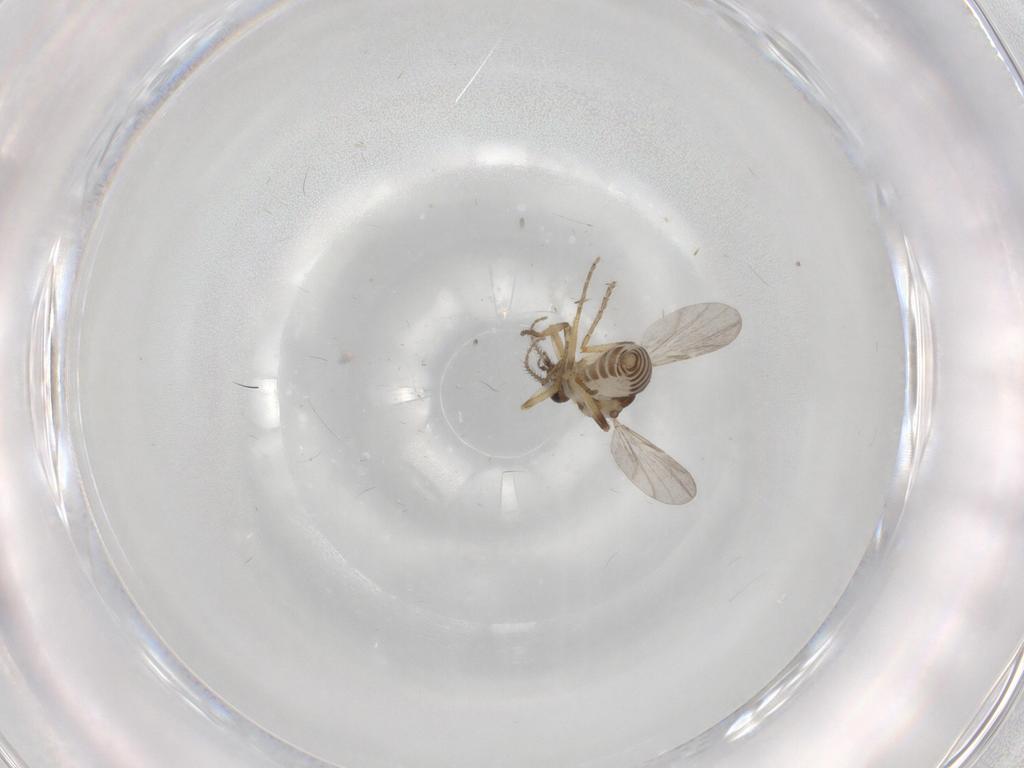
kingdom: Animalia
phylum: Arthropoda
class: Insecta
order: Diptera
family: Ceratopogonidae
